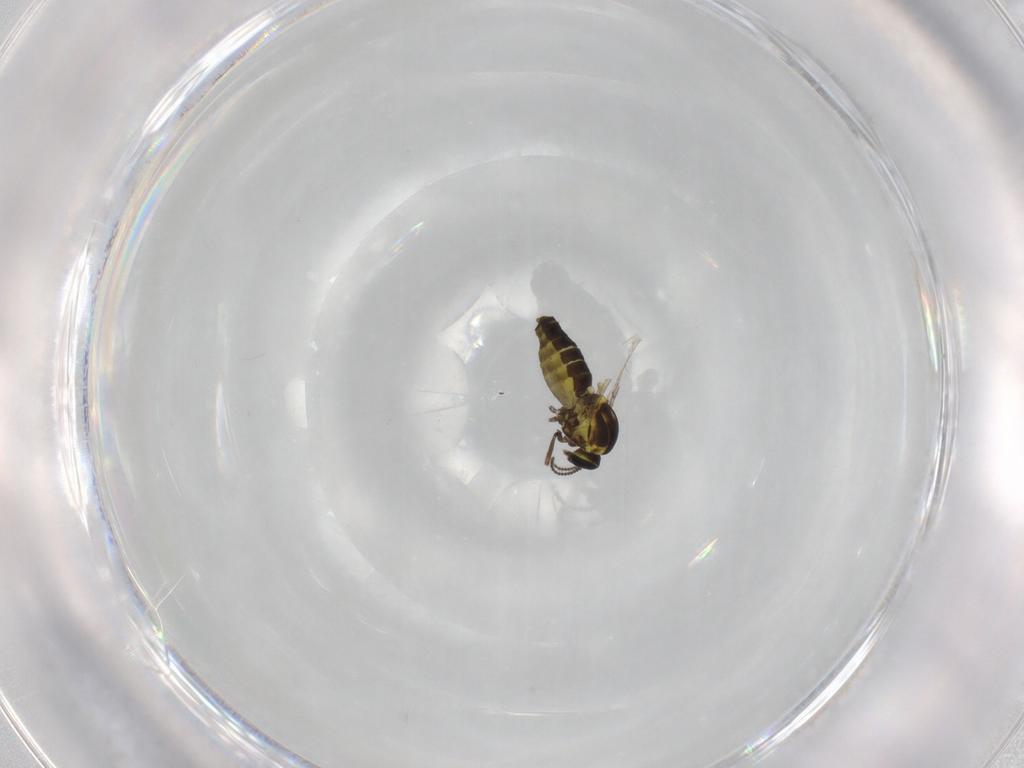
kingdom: Animalia
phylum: Arthropoda
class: Insecta
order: Diptera
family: Ceratopogonidae
